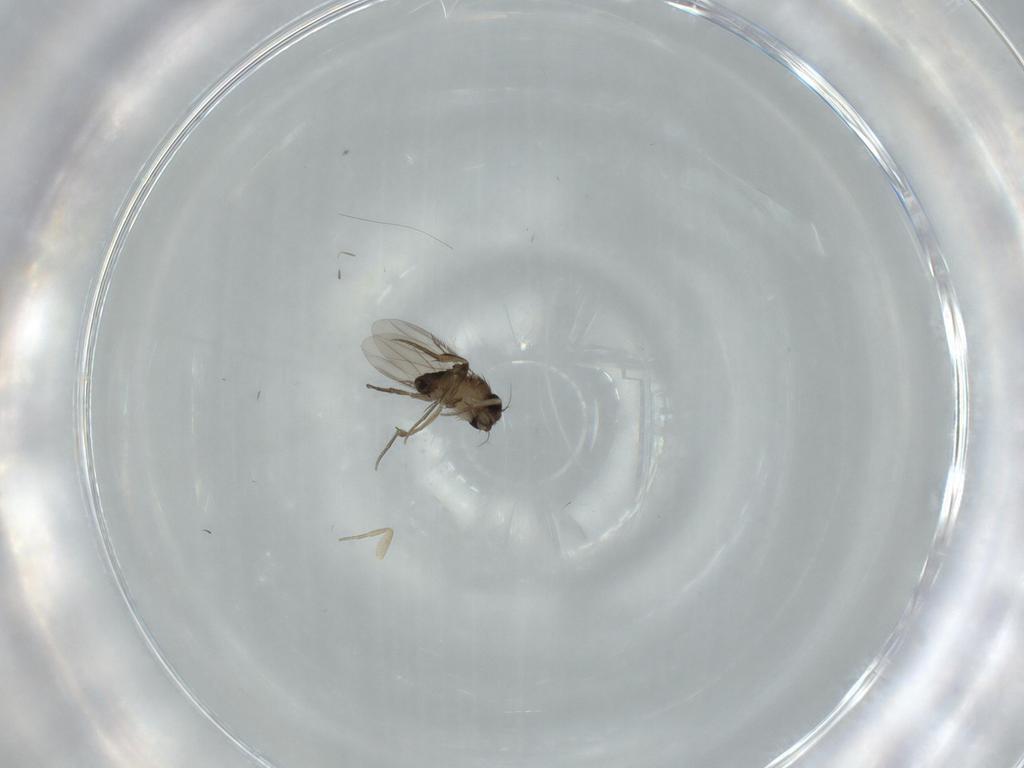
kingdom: Animalia
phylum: Arthropoda
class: Insecta
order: Diptera
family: Phoridae
